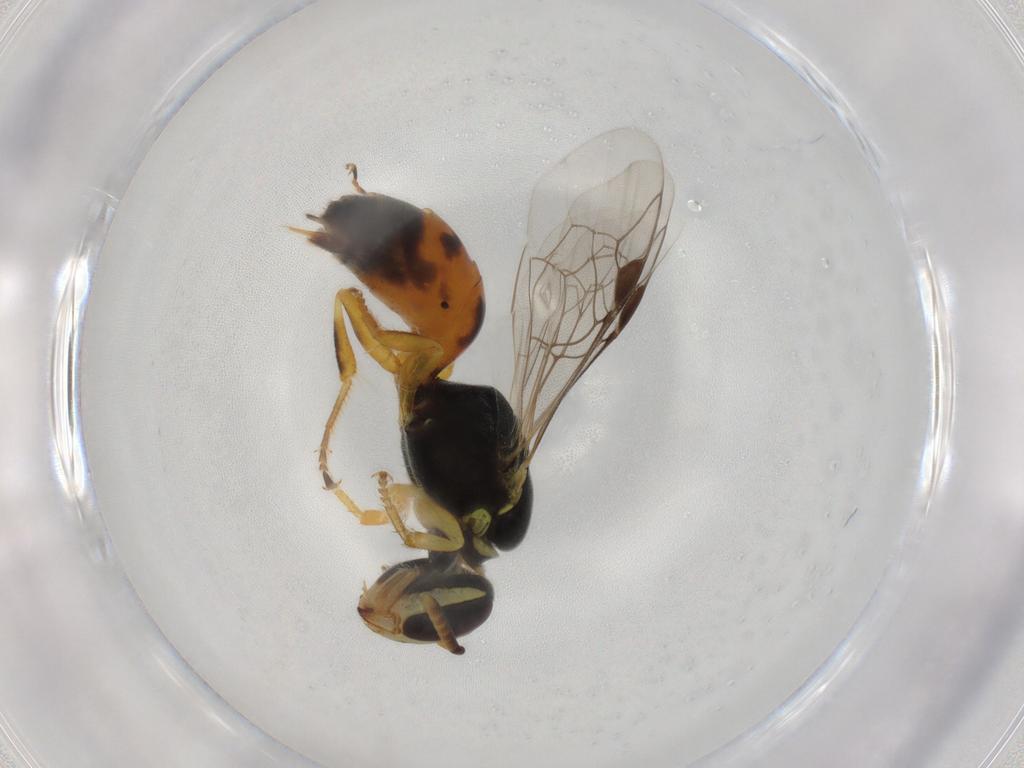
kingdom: Animalia
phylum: Arthropoda
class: Insecta
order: Hymenoptera
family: Colletidae
